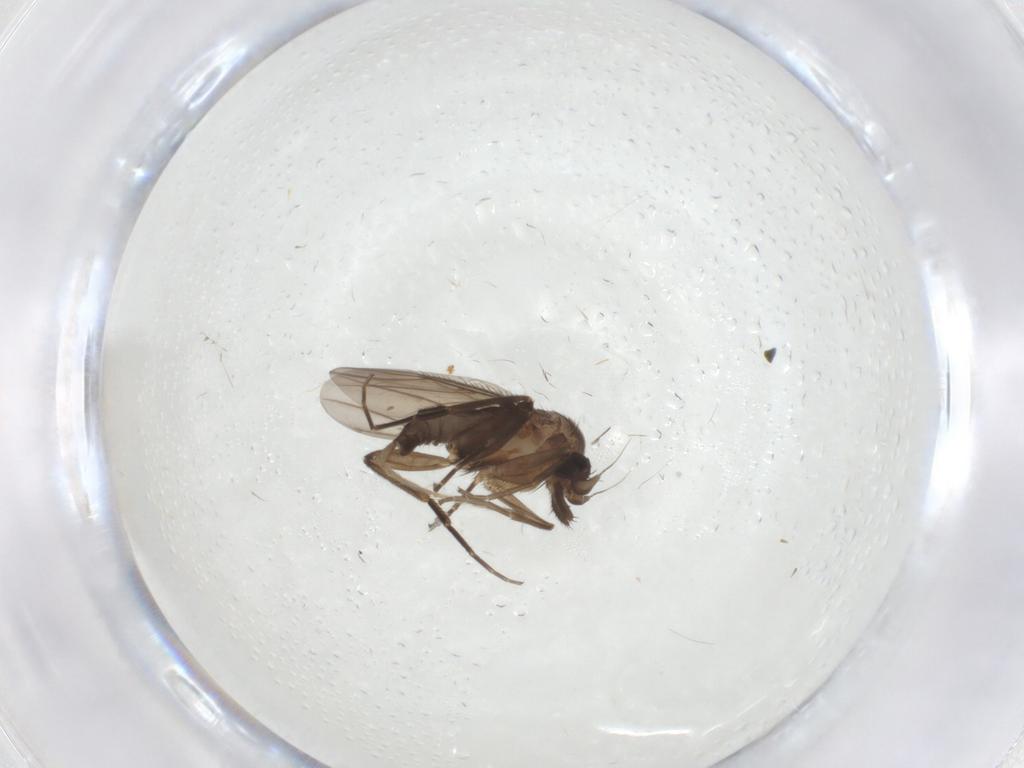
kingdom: Animalia
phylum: Arthropoda
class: Insecta
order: Diptera
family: Phoridae
